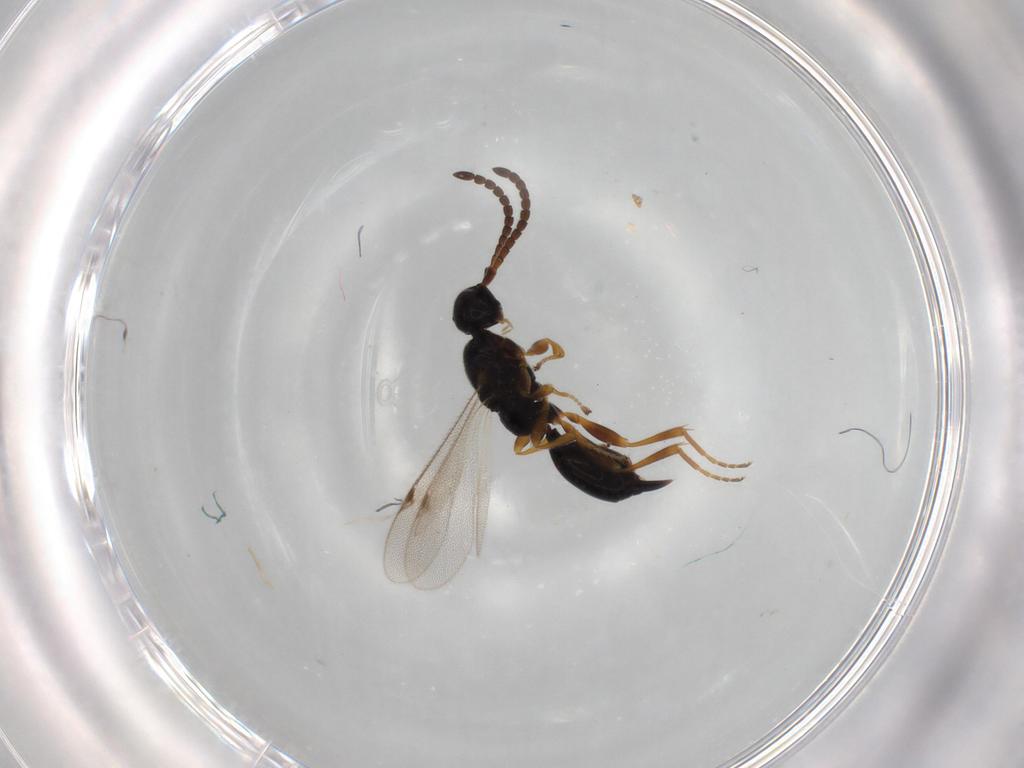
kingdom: Animalia
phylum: Arthropoda
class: Insecta
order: Hymenoptera
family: Proctotrupidae
